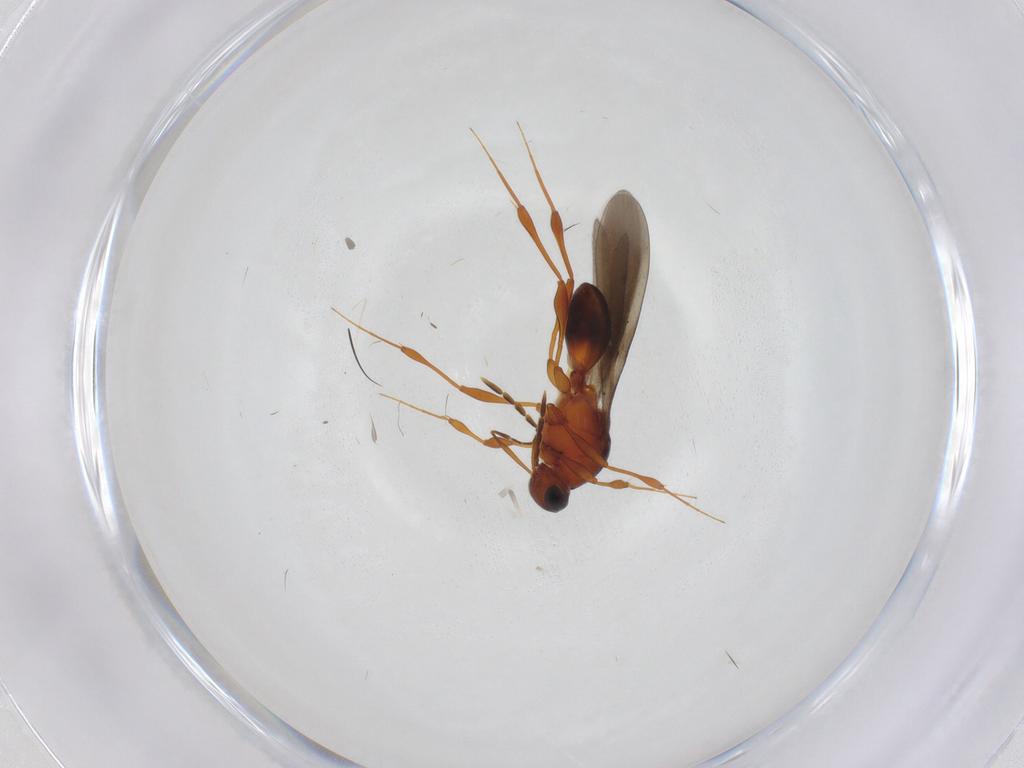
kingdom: Animalia
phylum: Arthropoda
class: Insecta
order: Hymenoptera
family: Platygastridae
